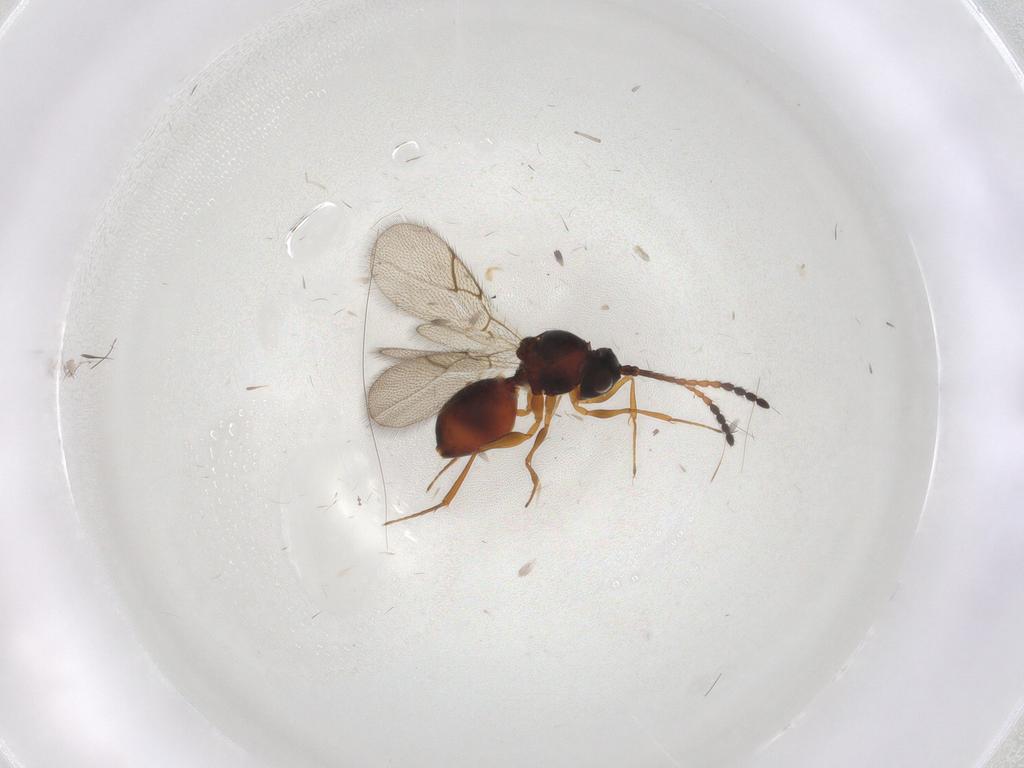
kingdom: Animalia
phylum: Arthropoda
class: Insecta
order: Hymenoptera
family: Figitidae
